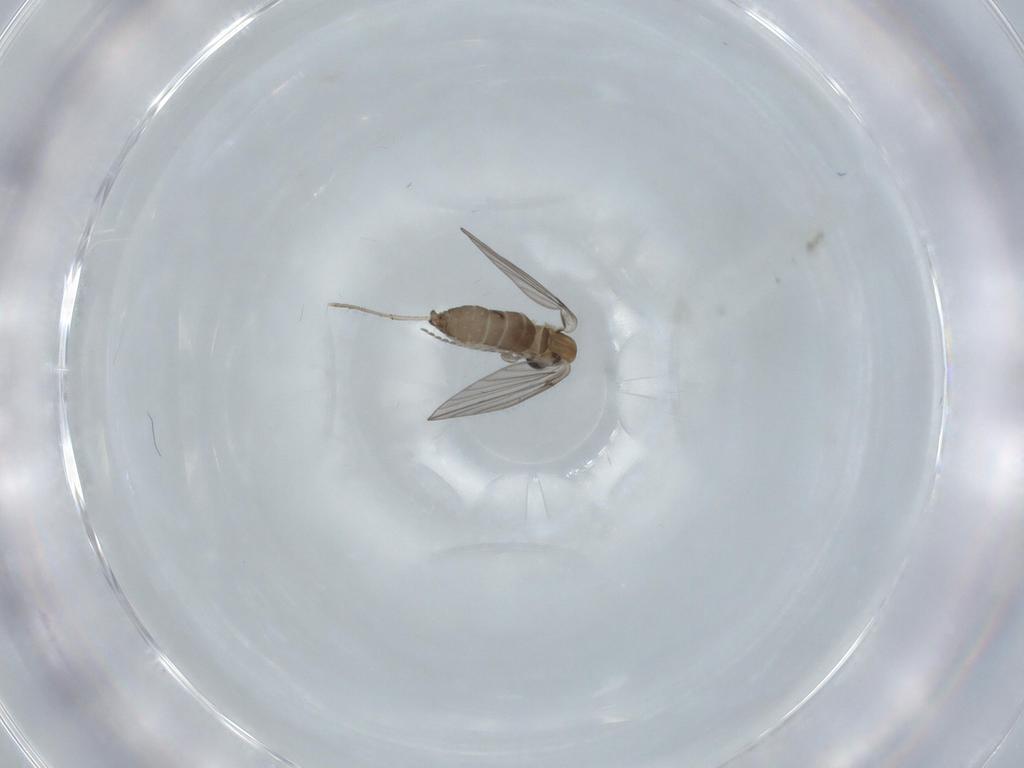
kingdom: Animalia
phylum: Arthropoda
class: Insecta
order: Diptera
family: Psychodidae
